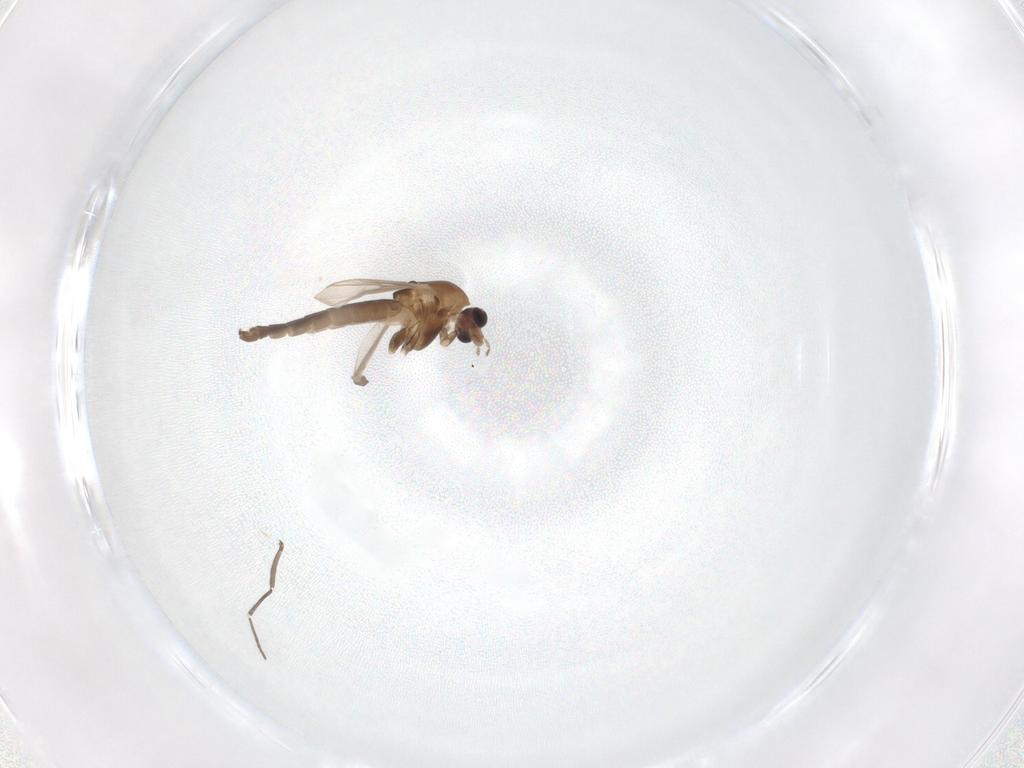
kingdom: Animalia
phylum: Arthropoda
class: Insecta
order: Diptera
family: Chironomidae
